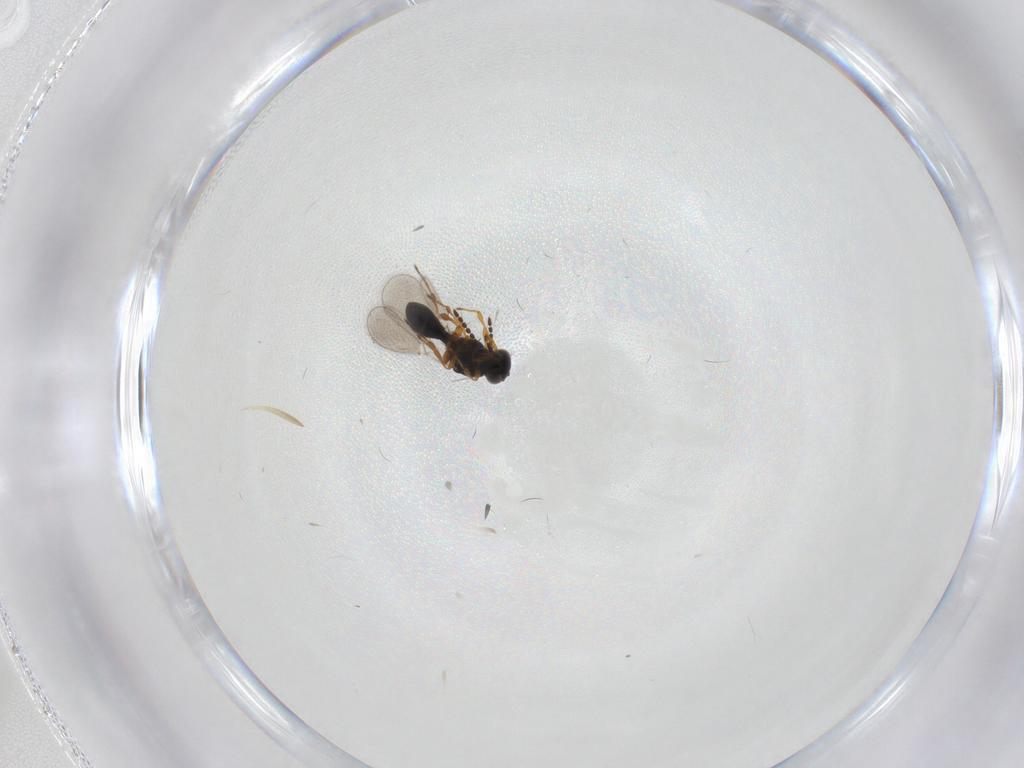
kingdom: Animalia
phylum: Arthropoda
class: Insecta
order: Hymenoptera
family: Platygastridae
